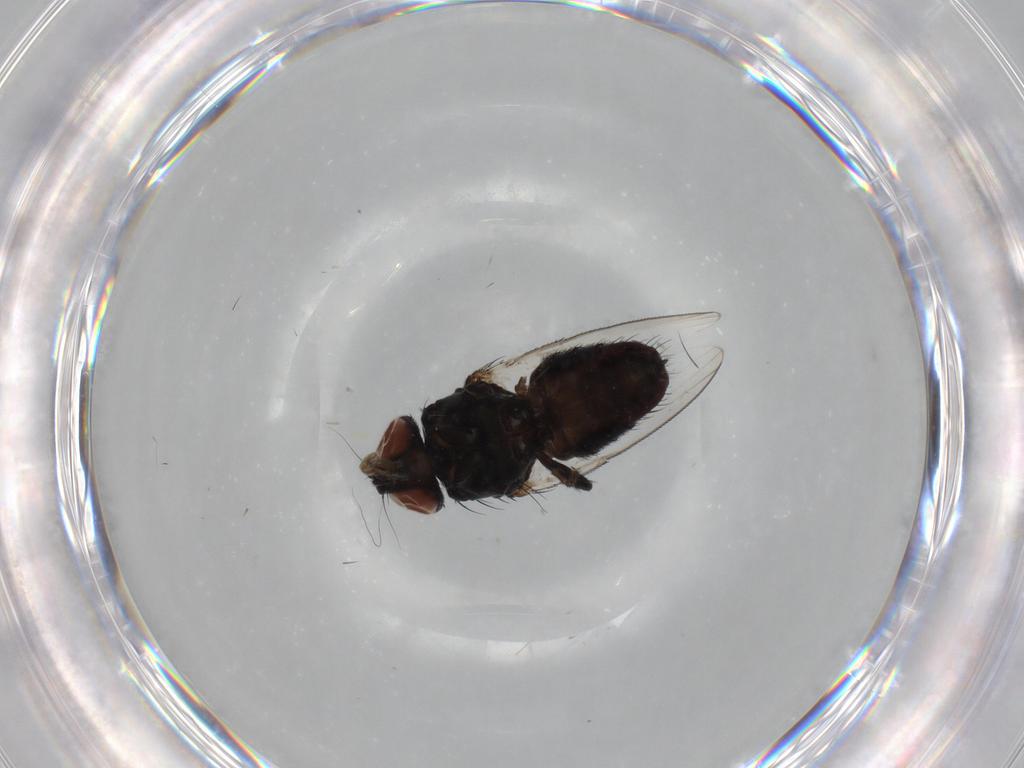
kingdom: Animalia
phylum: Arthropoda
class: Insecta
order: Diptera
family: Milichiidae
